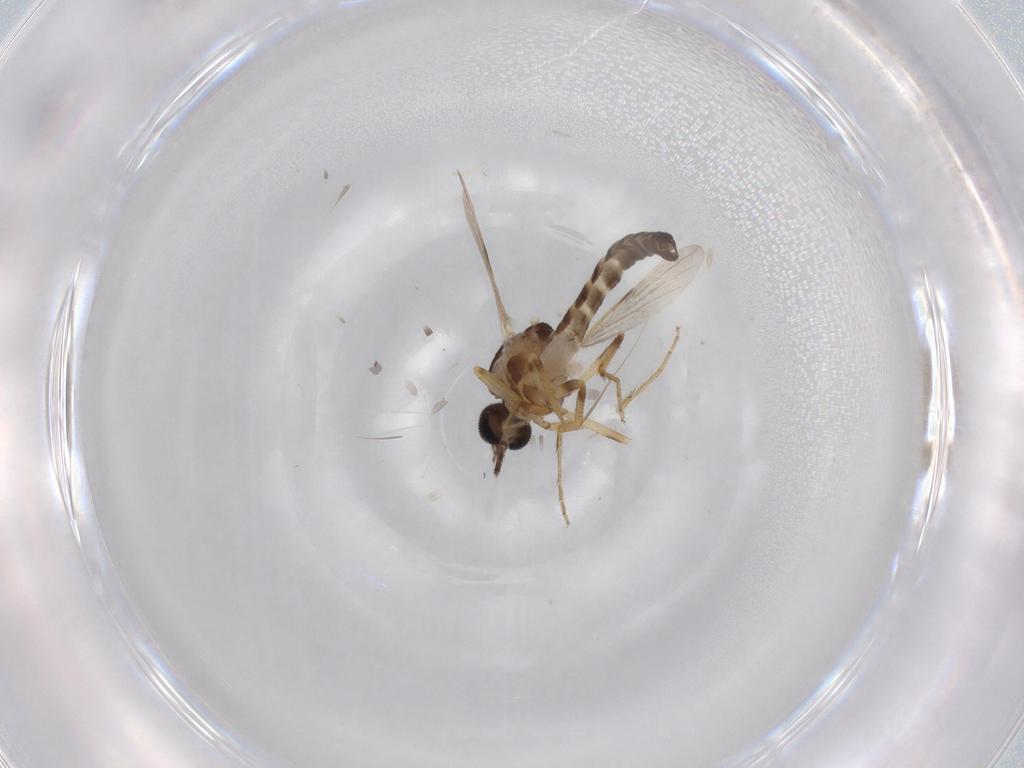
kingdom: Animalia
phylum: Arthropoda
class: Insecta
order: Diptera
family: Ceratopogonidae
